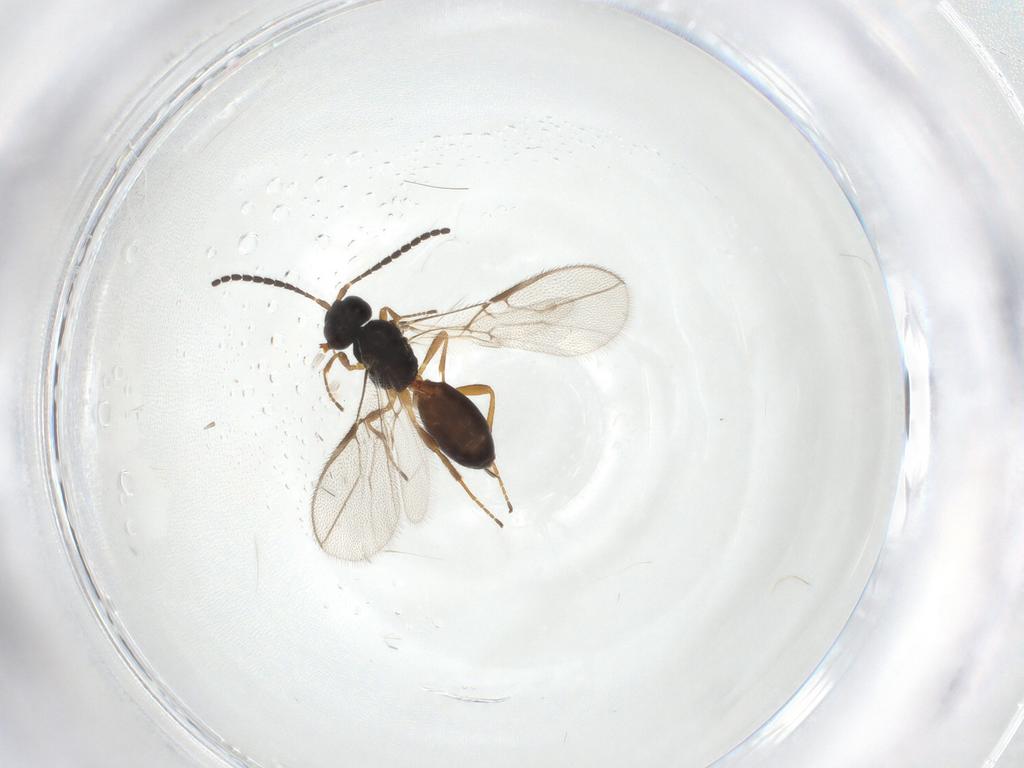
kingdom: Animalia
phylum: Arthropoda
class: Insecta
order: Hymenoptera
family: Braconidae
